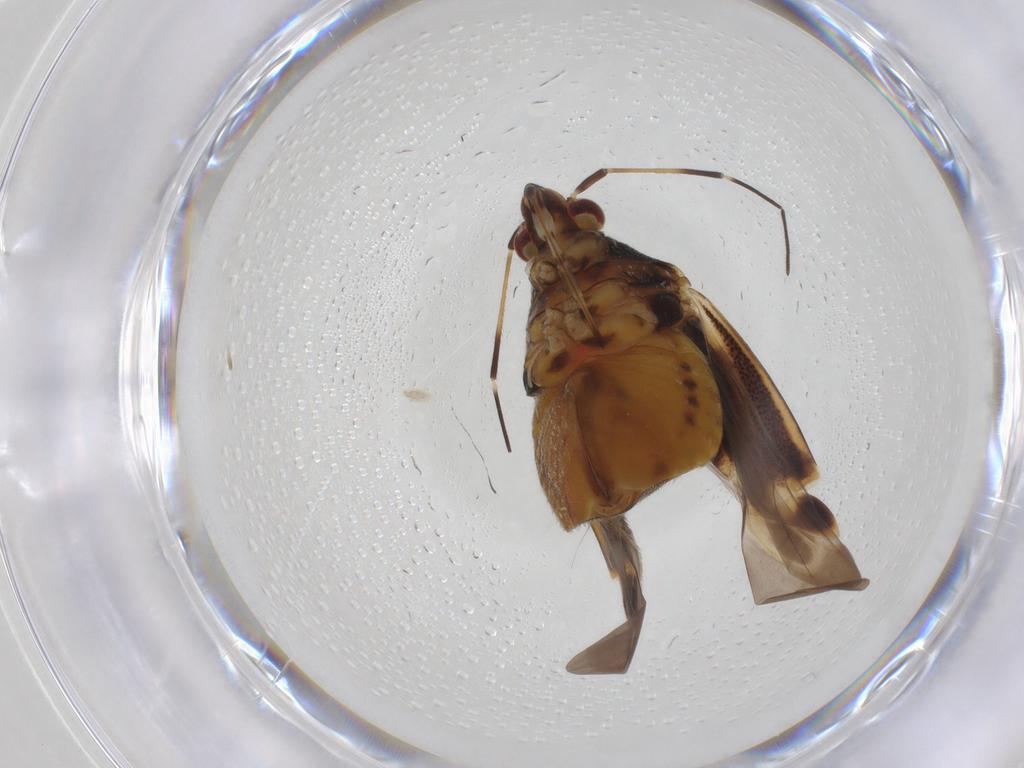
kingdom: Animalia
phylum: Arthropoda
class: Insecta
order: Hemiptera
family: Miridae
